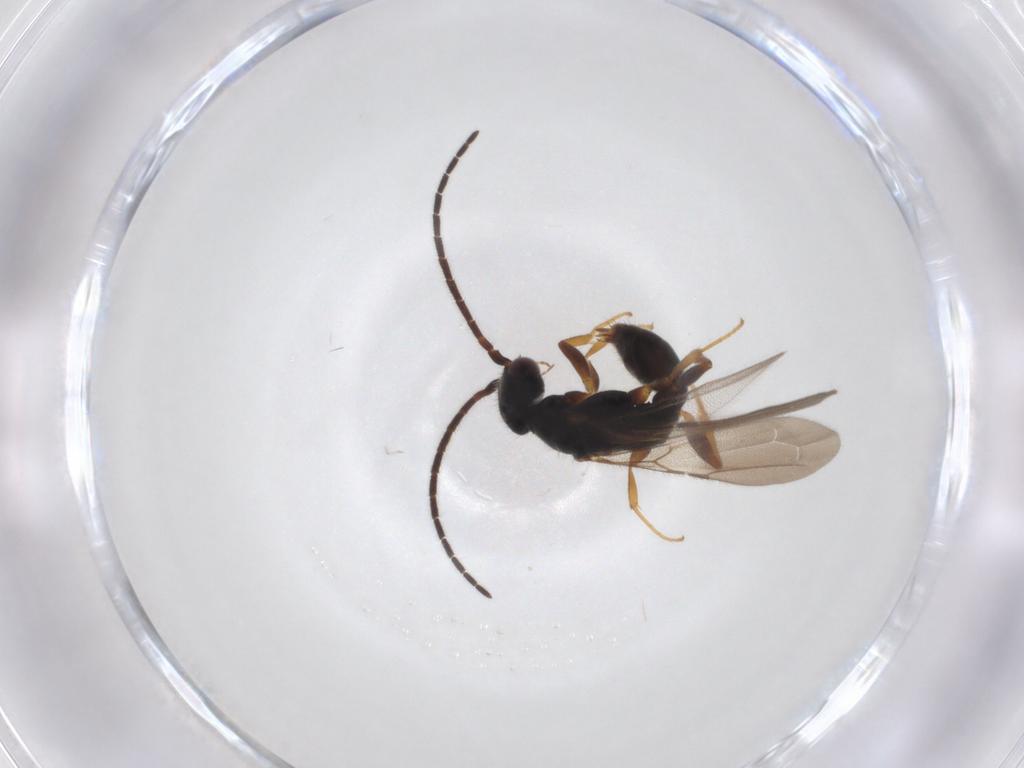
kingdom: Animalia
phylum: Arthropoda
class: Insecta
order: Hymenoptera
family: Bethylidae
